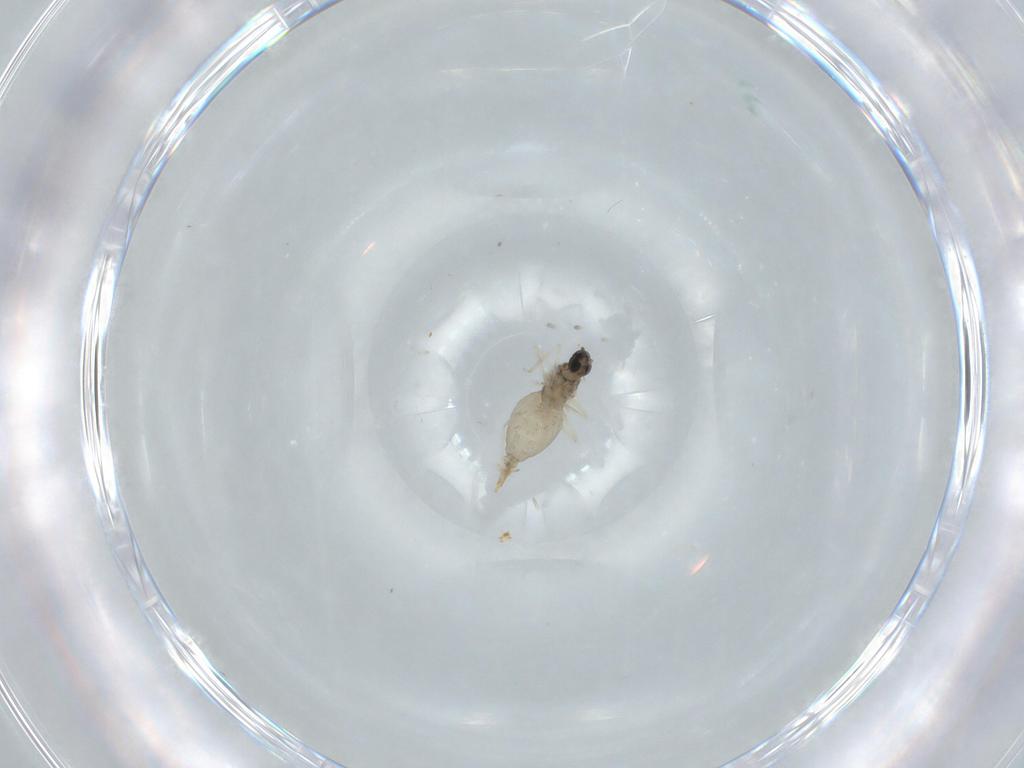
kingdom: Animalia
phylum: Arthropoda
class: Insecta
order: Diptera
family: Cecidomyiidae
